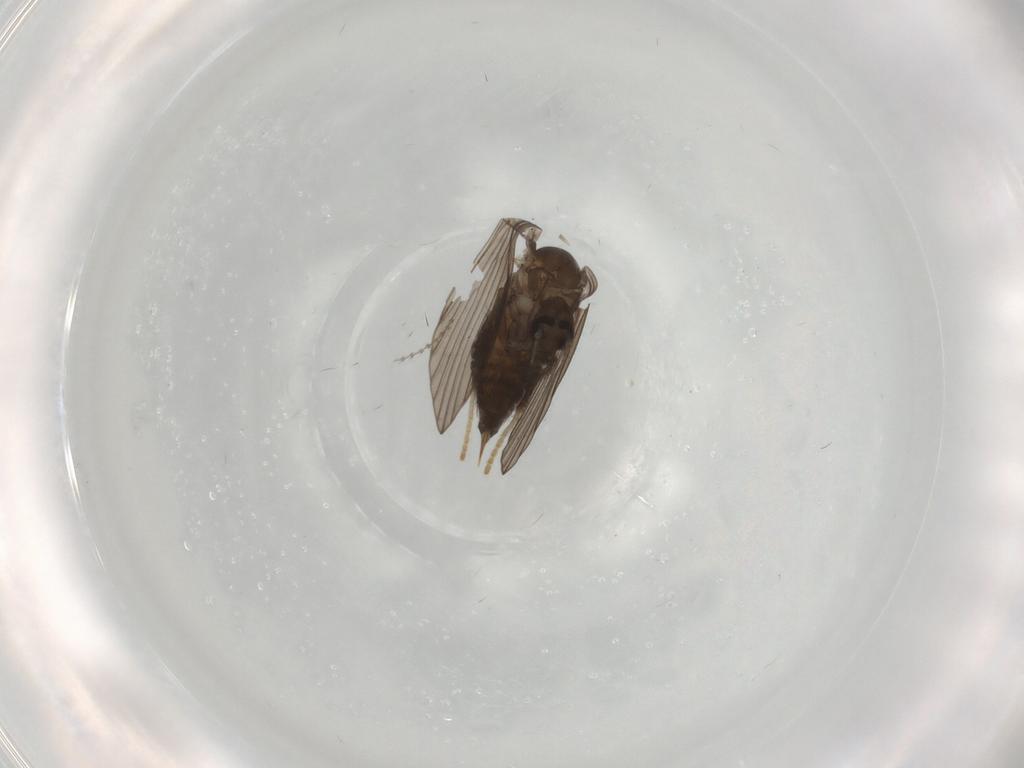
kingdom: Animalia
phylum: Arthropoda
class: Insecta
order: Diptera
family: Psychodidae
